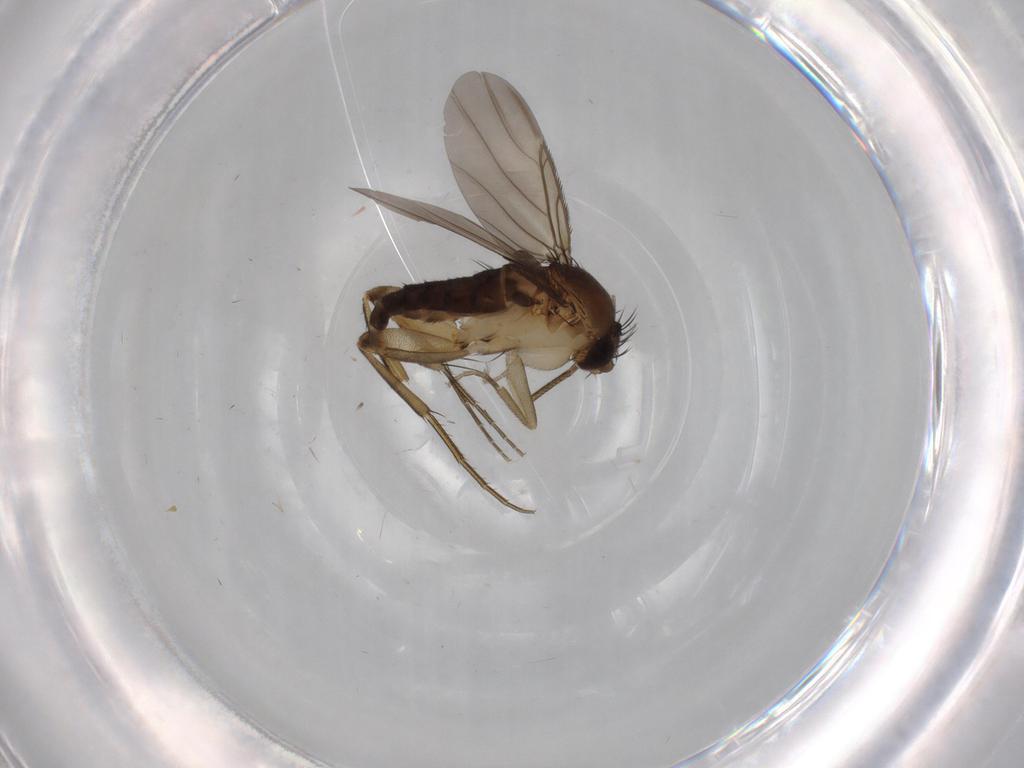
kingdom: Animalia
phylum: Arthropoda
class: Insecta
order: Diptera
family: Phoridae
